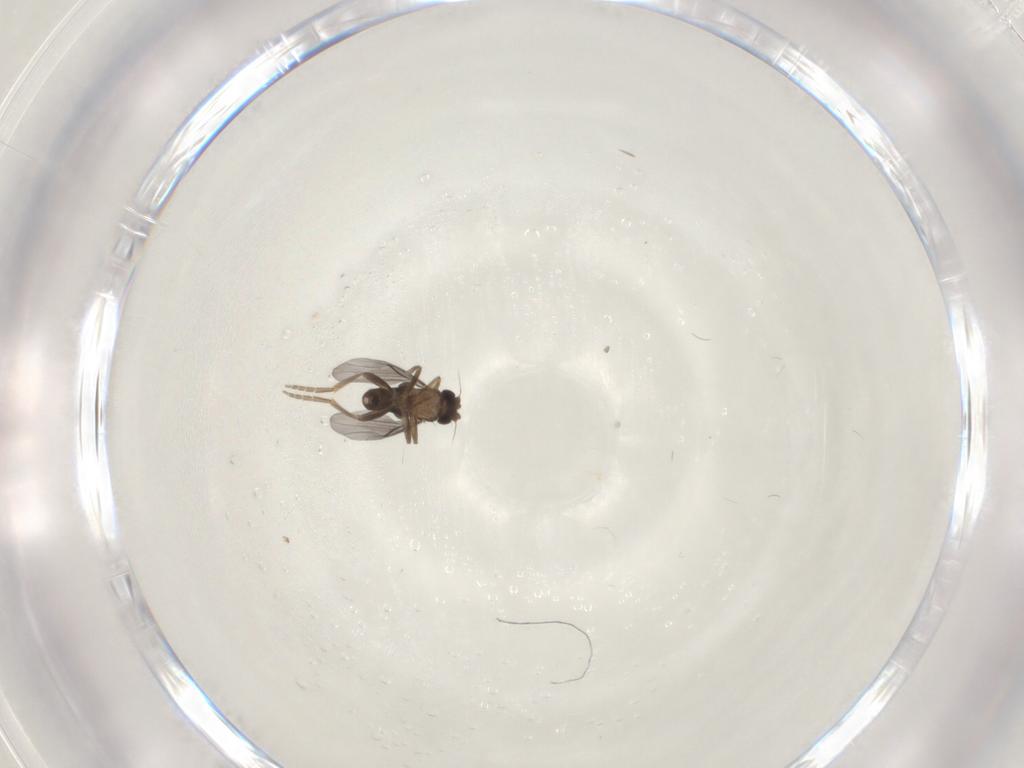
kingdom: Animalia
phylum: Arthropoda
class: Insecta
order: Diptera
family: Chironomidae
